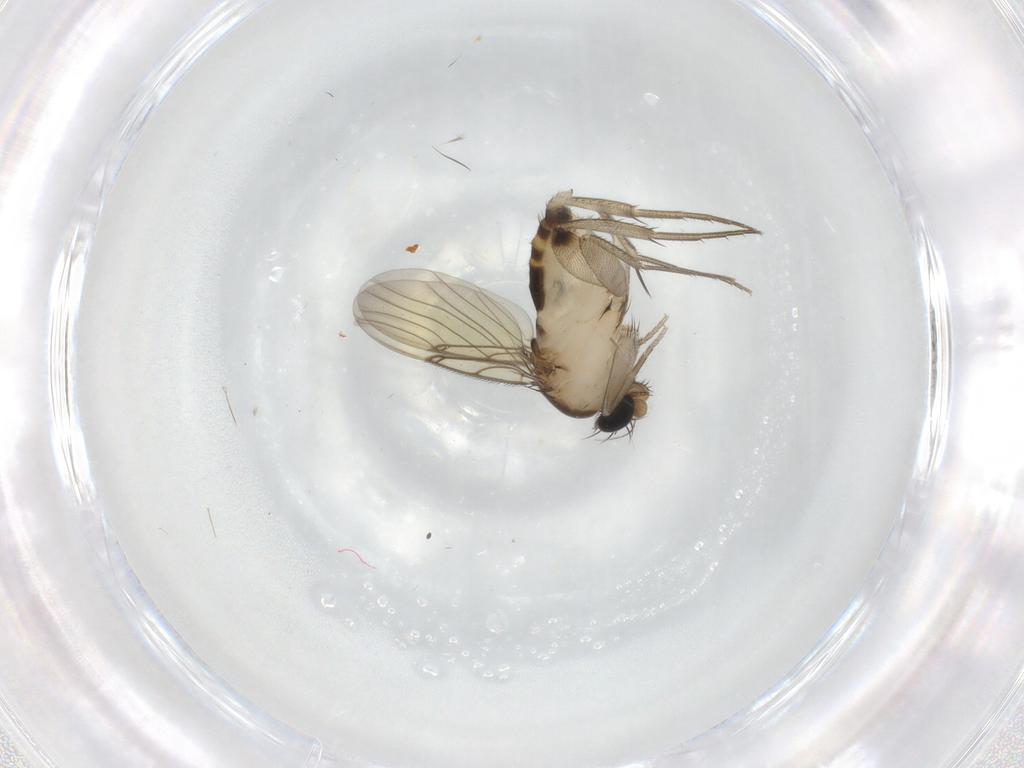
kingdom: Animalia
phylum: Arthropoda
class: Insecta
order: Diptera
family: Phoridae
